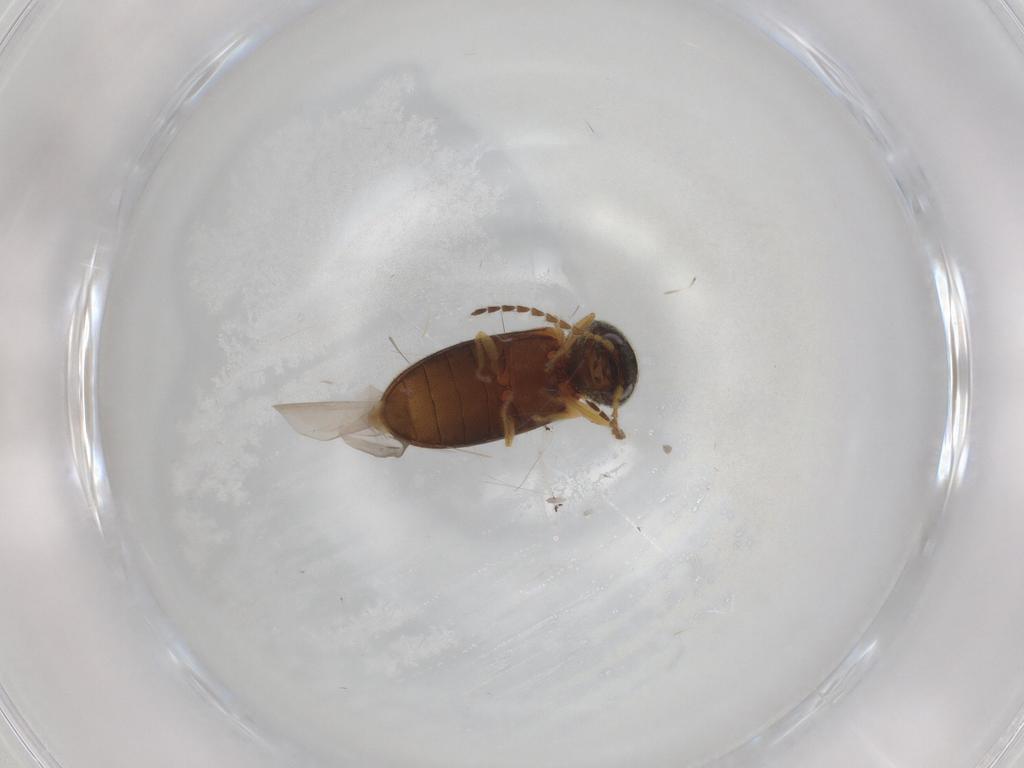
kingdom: Animalia
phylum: Arthropoda
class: Insecta
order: Coleoptera
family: Elateridae
